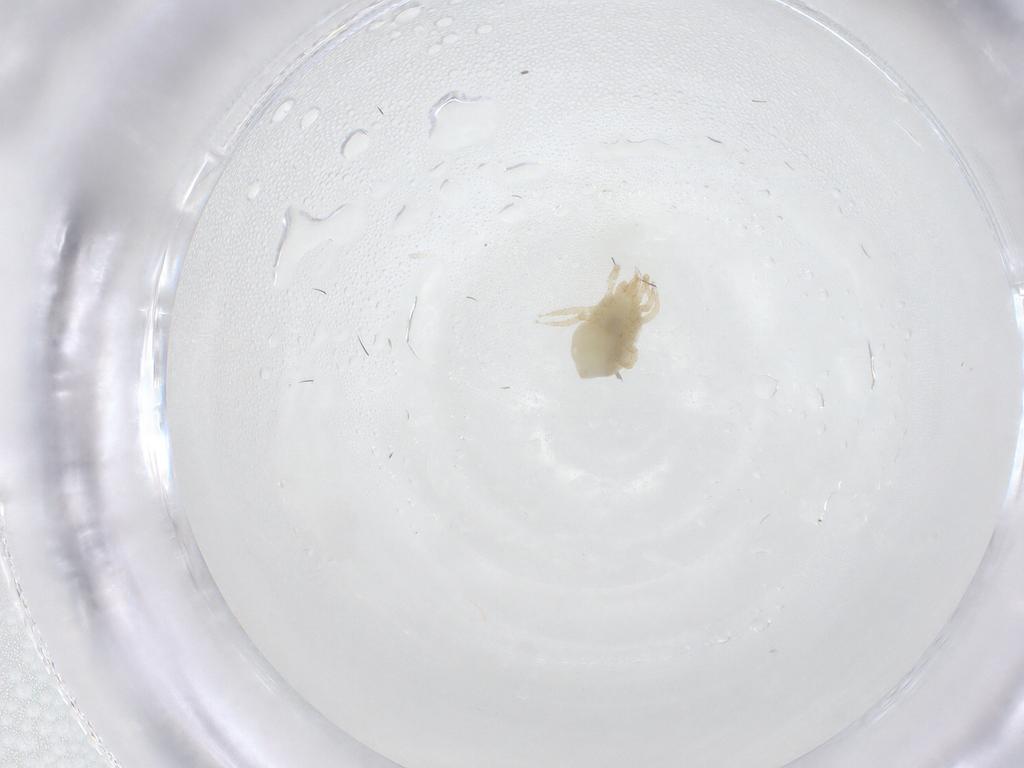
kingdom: Animalia
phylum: Arthropoda
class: Arachnida
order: Mesostigmata
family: Melicharidae
